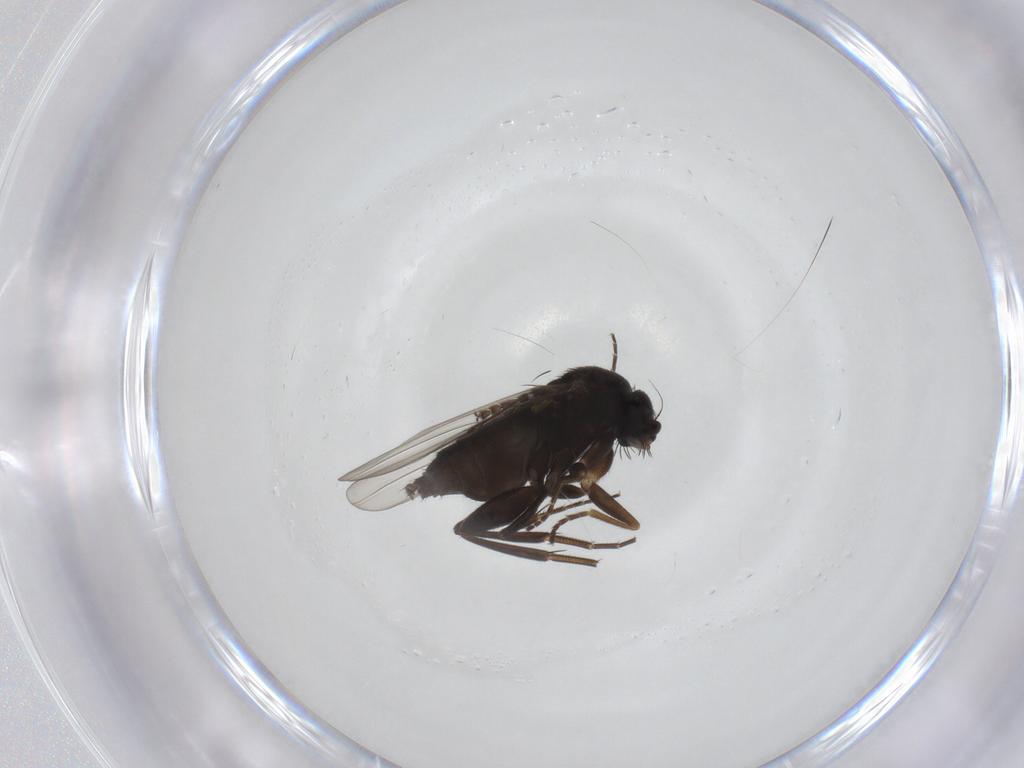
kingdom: Animalia
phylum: Arthropoda
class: Insecta
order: Diptera
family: Phoridae
